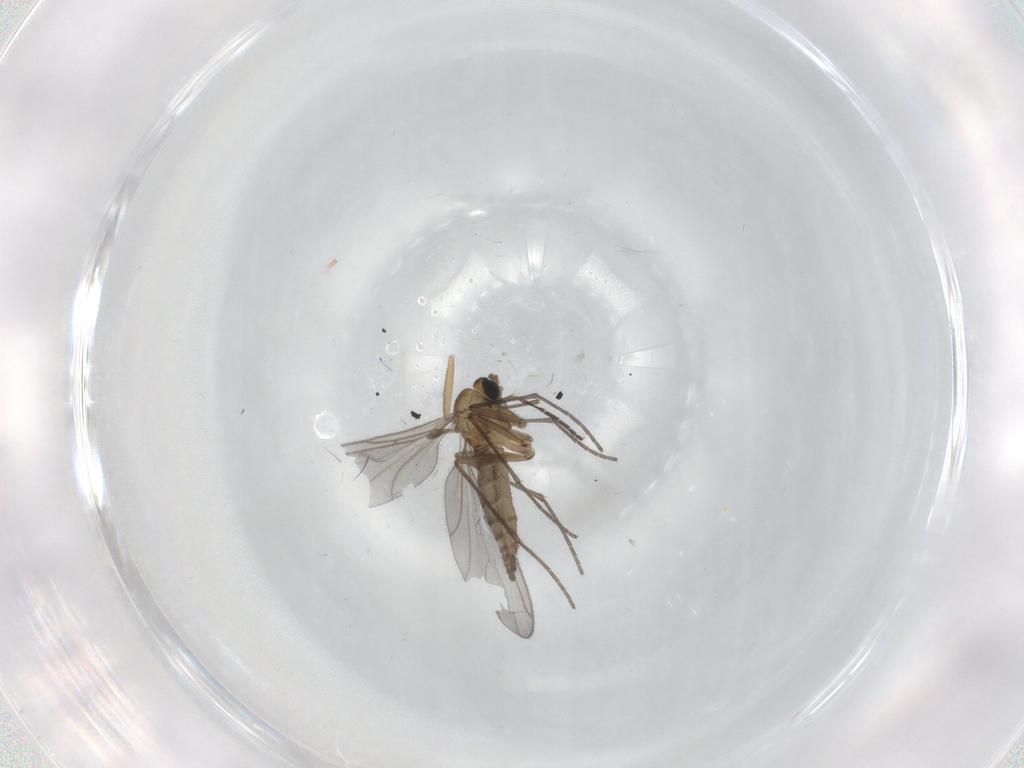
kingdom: Animalia
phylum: Arthropoda
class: Insecta
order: Diptera
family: Sciaridae
